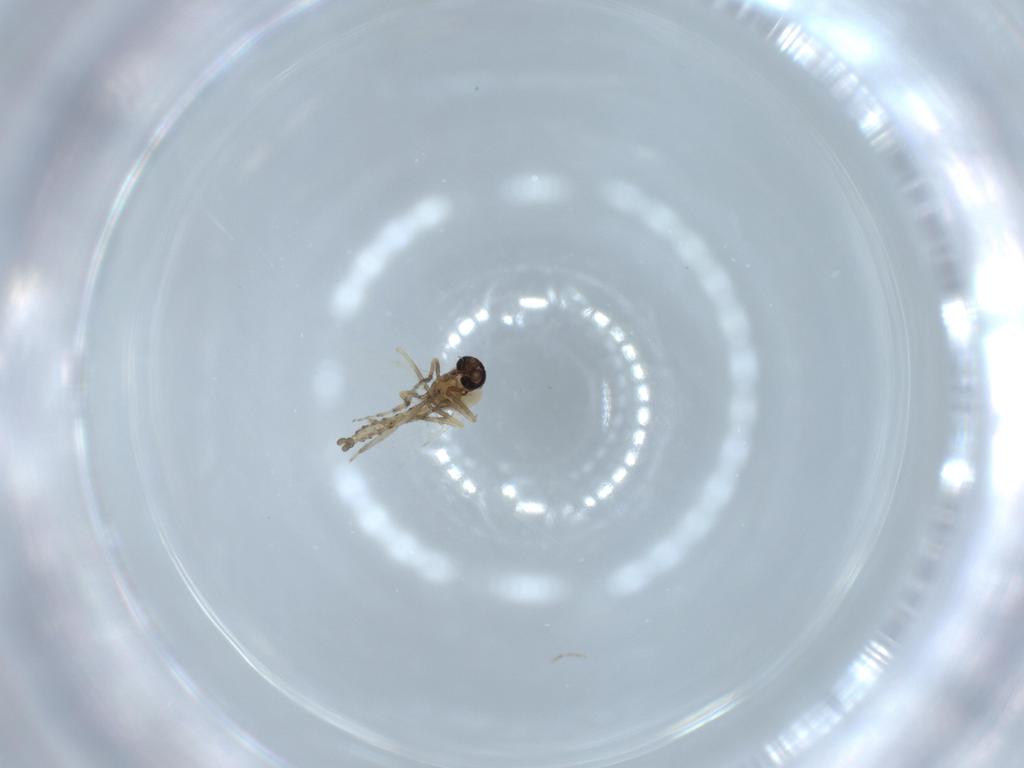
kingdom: Animalia
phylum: Arthropoda
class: Insecta
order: Diptera
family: Ceratopogonidae
